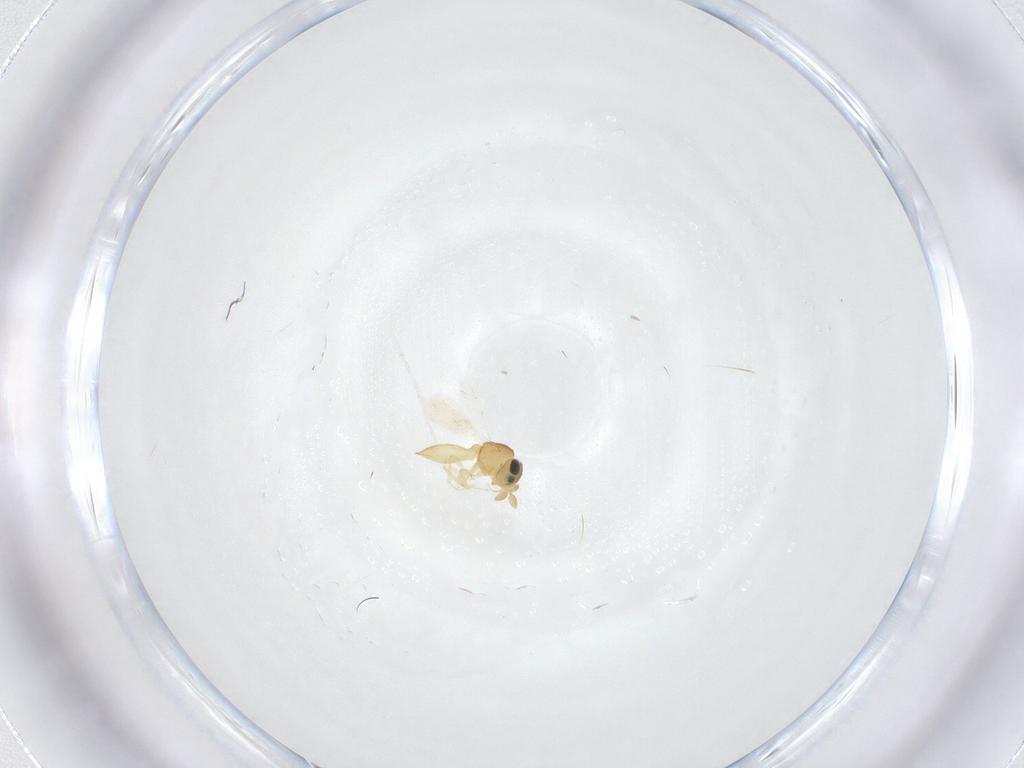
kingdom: Animalia
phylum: Arthropoda
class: Insecta
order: Hymenoptera
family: Scelionidae
